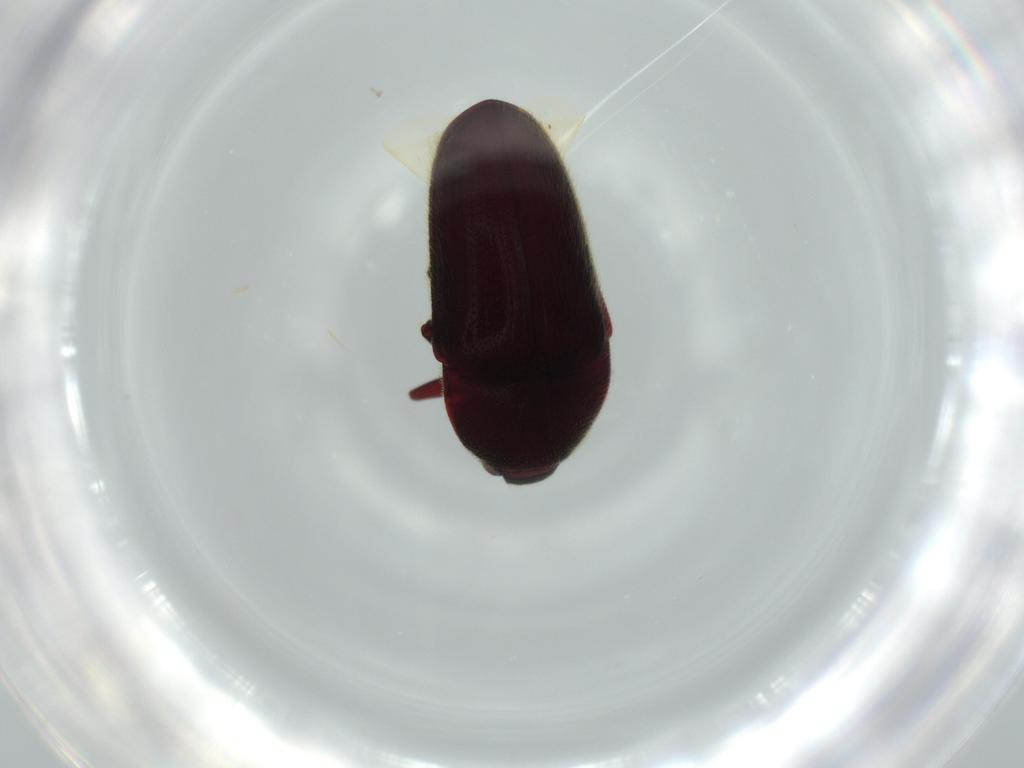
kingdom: Animalia
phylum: Arthropoda
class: Insecta
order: Coleoptera
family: Throscidae
